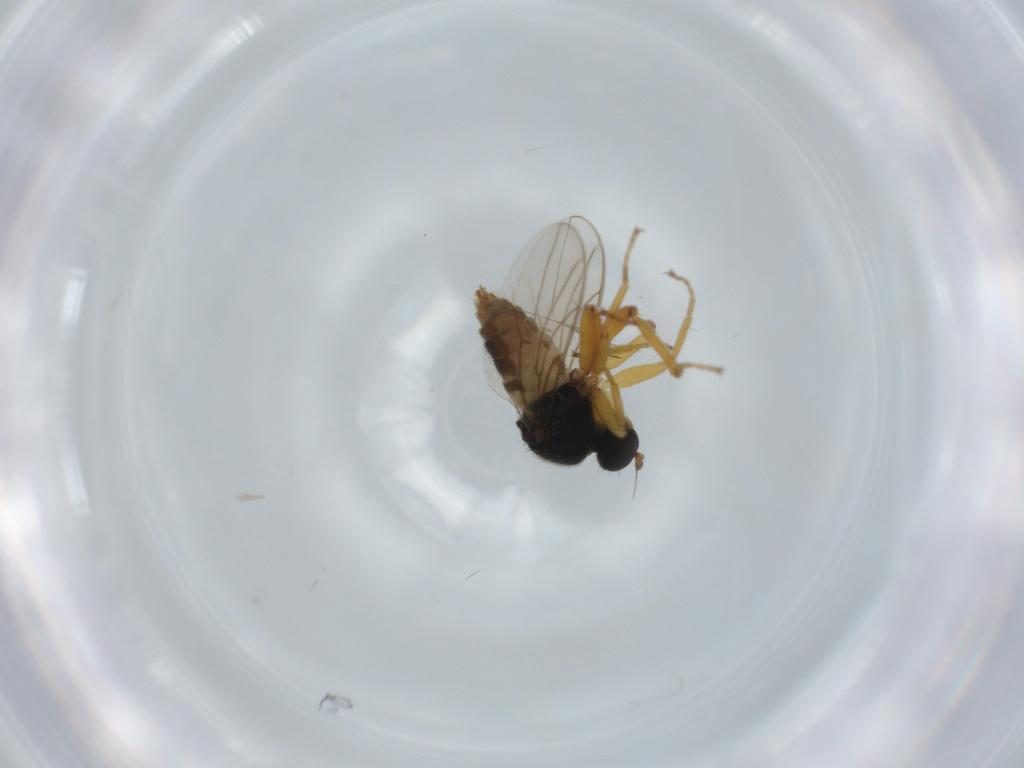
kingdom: Animalia
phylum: Arthropoda
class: Insecta
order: Diptera
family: Hybotidae
